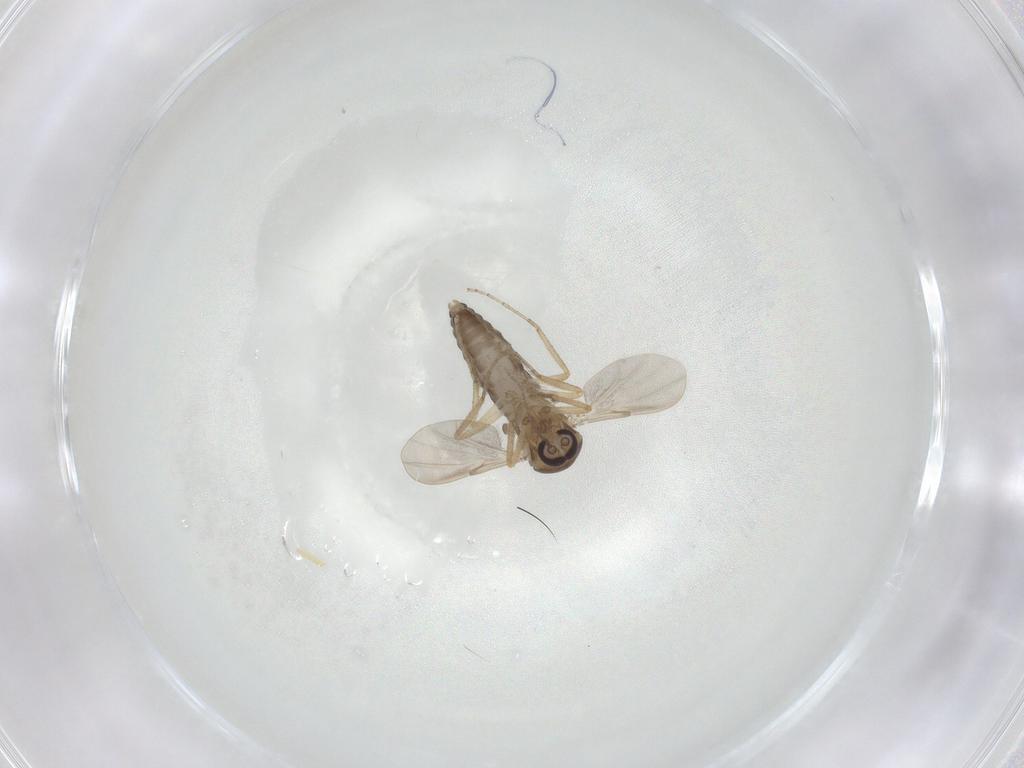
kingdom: Animalia
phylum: Arthropoda
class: Insecta
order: Diptera
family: Ceratopogonidae
